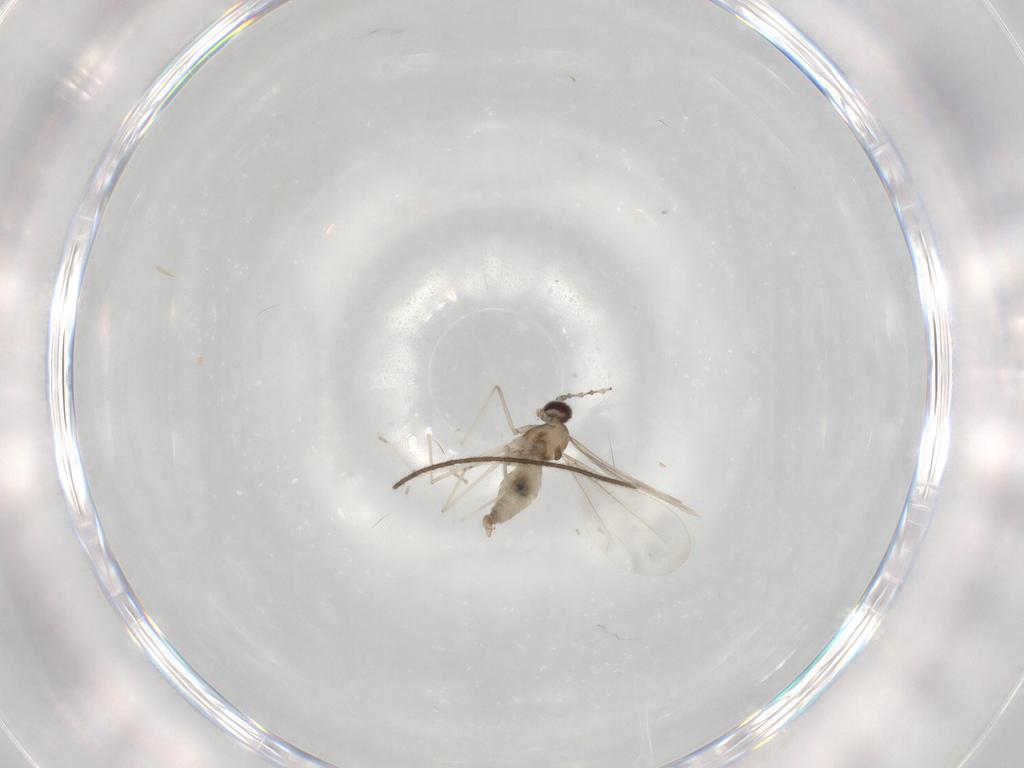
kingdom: Animalia
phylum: Arthropoda
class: Insecta
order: Diptera
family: Cecidomyiidae
